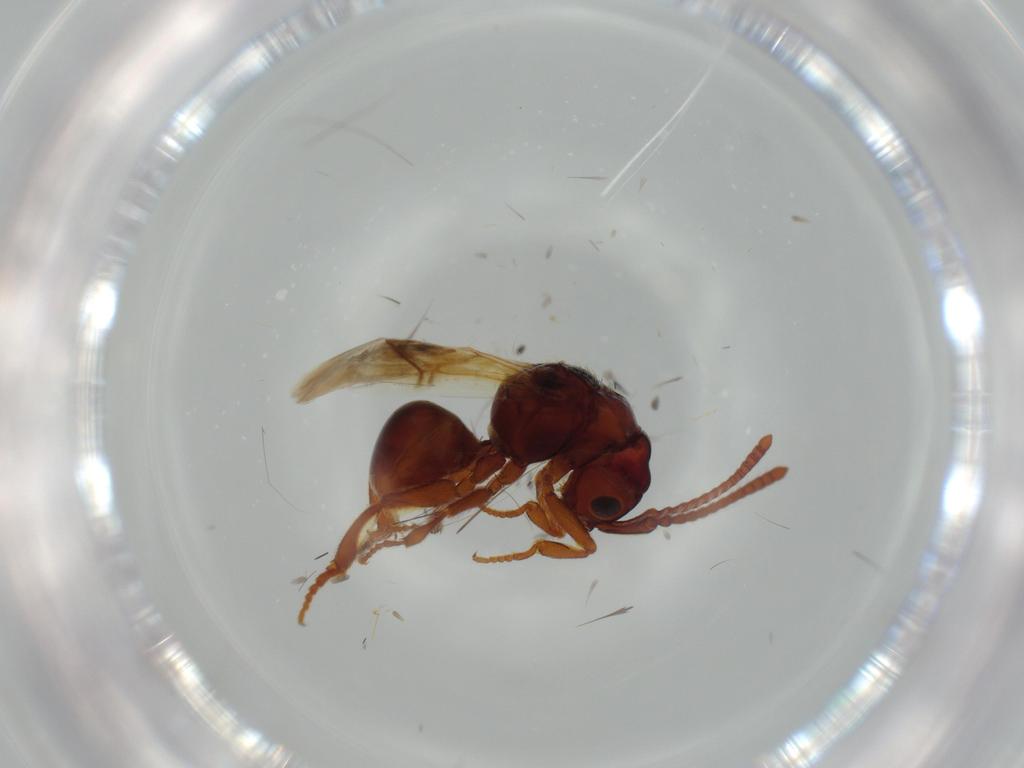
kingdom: Animalia
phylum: Arthropoda
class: Insecta
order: Hymenoptera
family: Chrysididae
